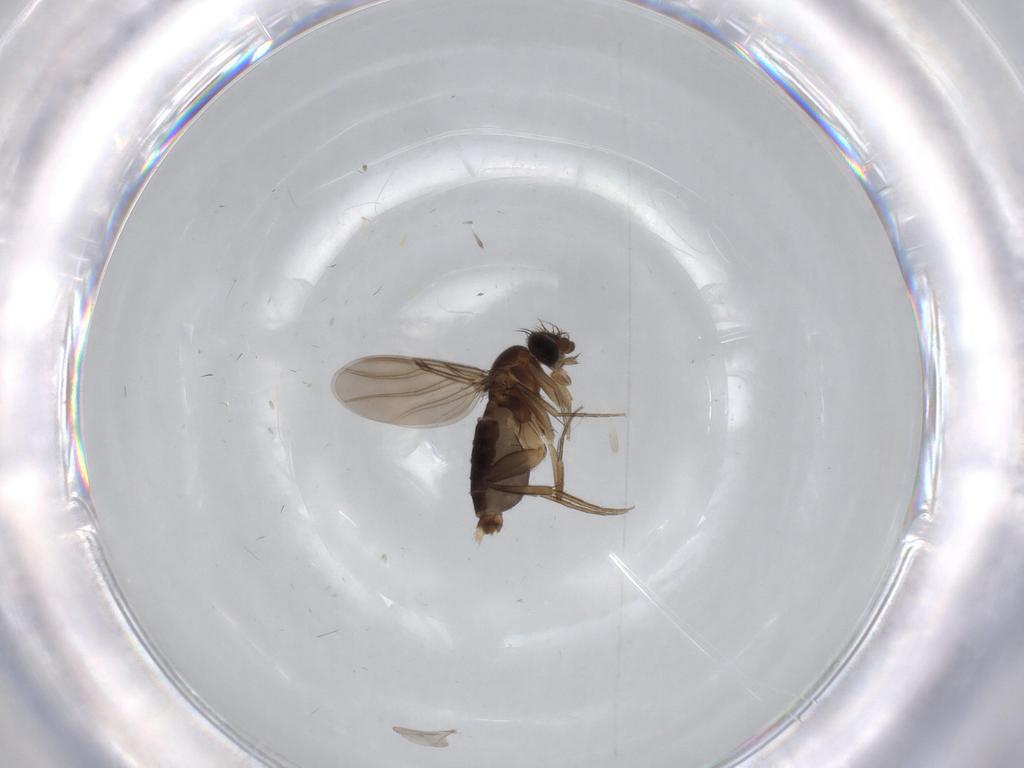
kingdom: Animalia
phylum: Arthropoda
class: Insecta
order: Diptera
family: Phoridae
